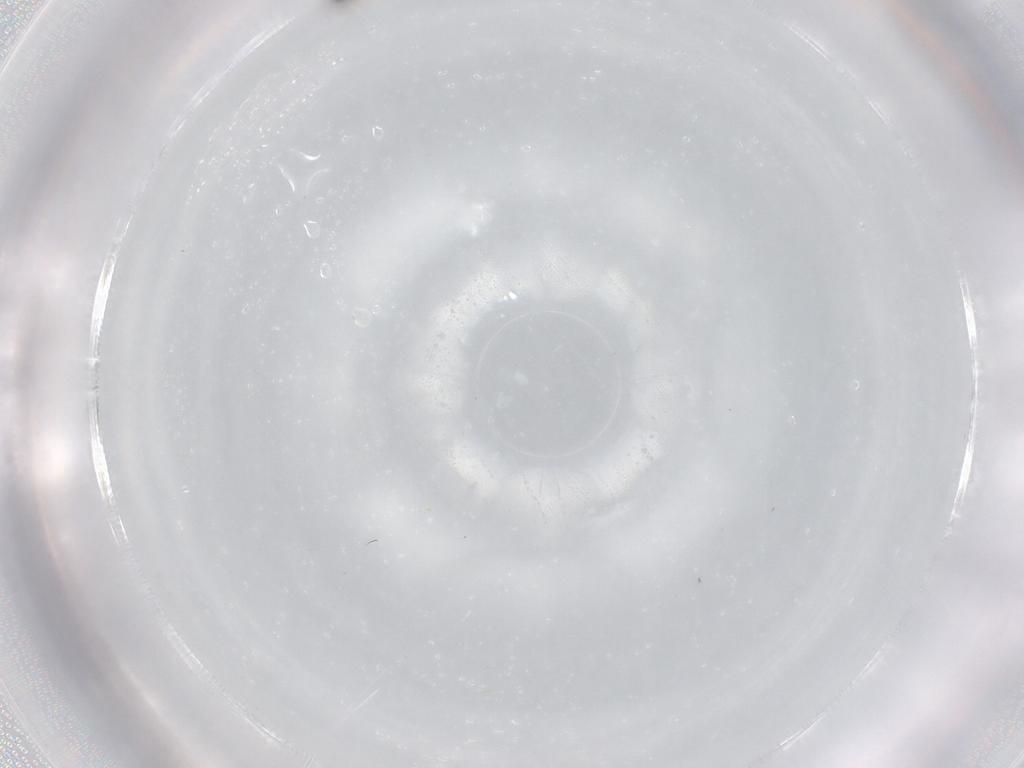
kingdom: Animalia
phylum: Arthropoda
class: Insecta
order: Diptera
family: Cecidomyiidae
